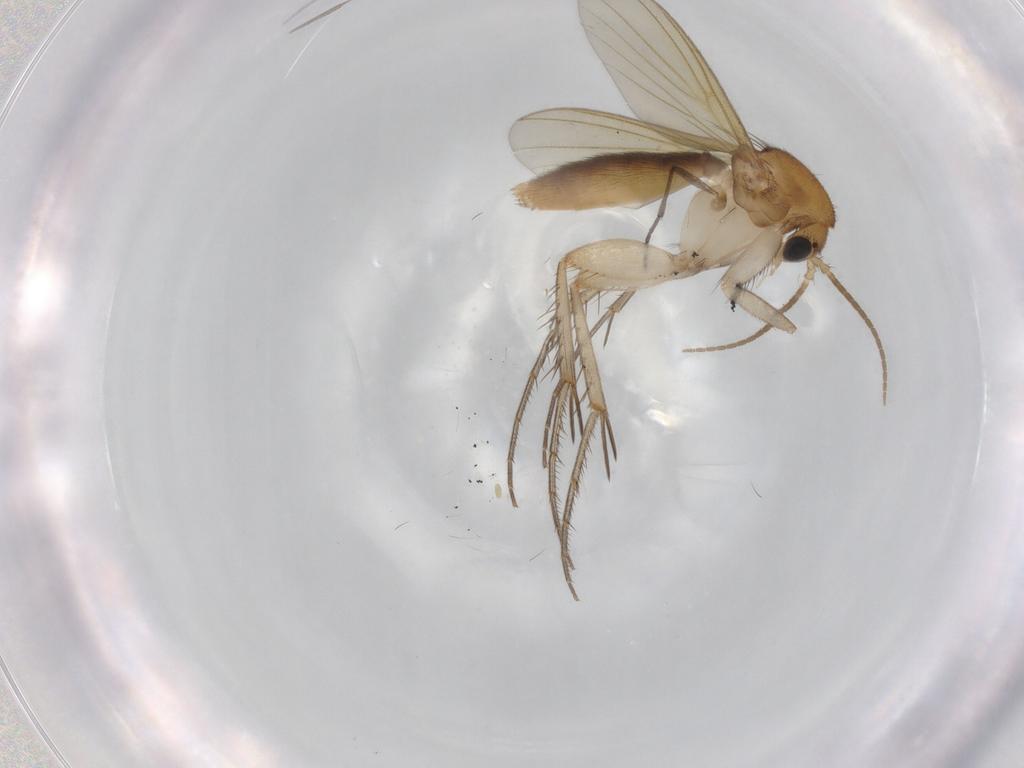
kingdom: Animalia
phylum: Arthropoda
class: Insecta
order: Diptera
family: Mycetophilidae
